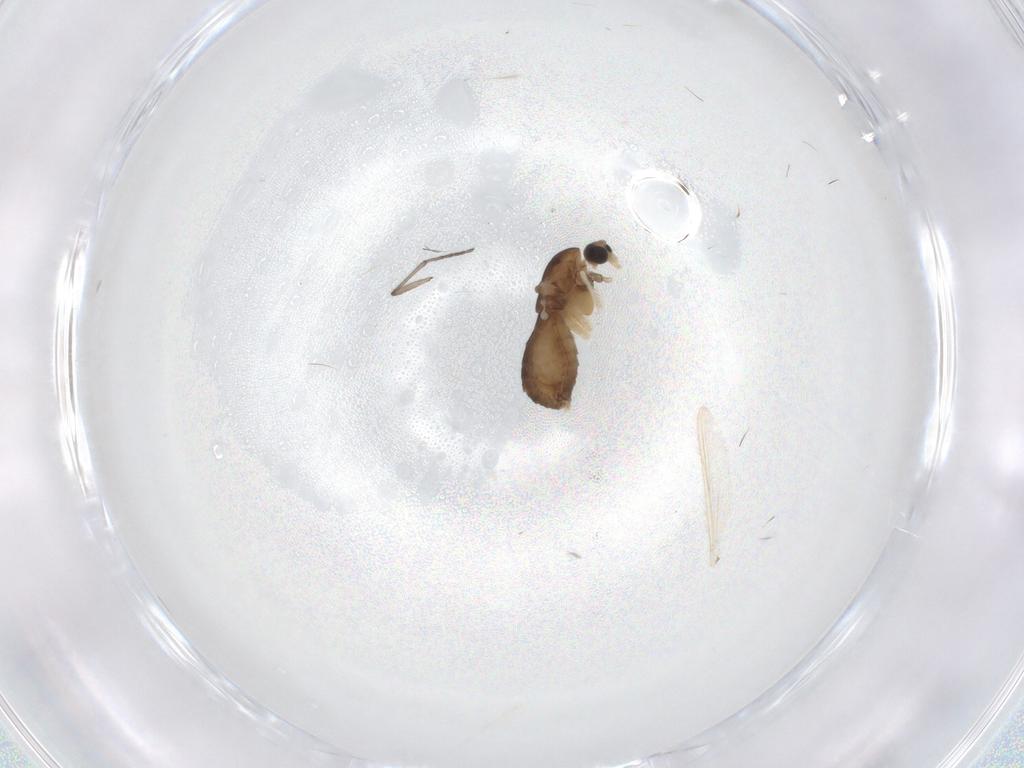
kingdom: Animalia
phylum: Arthropoda
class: Insecta
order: Diptera
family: Chironomidae
